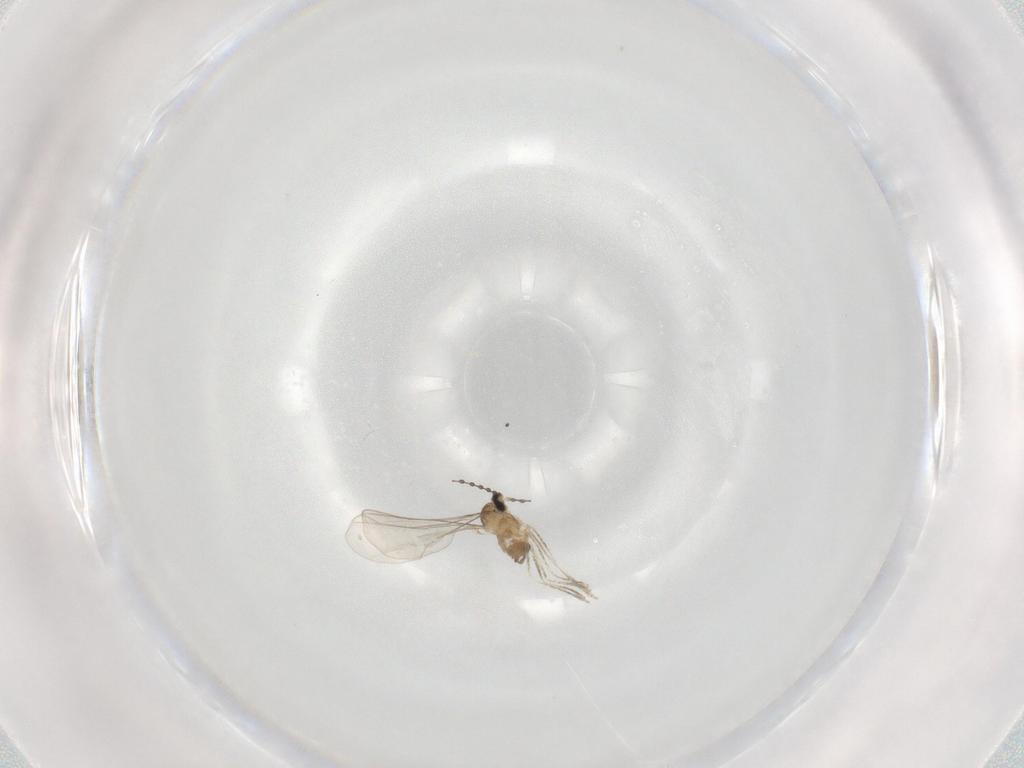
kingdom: Animalia
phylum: Arthropoda
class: Insecta
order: Diptera
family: Cecidomyiidae
